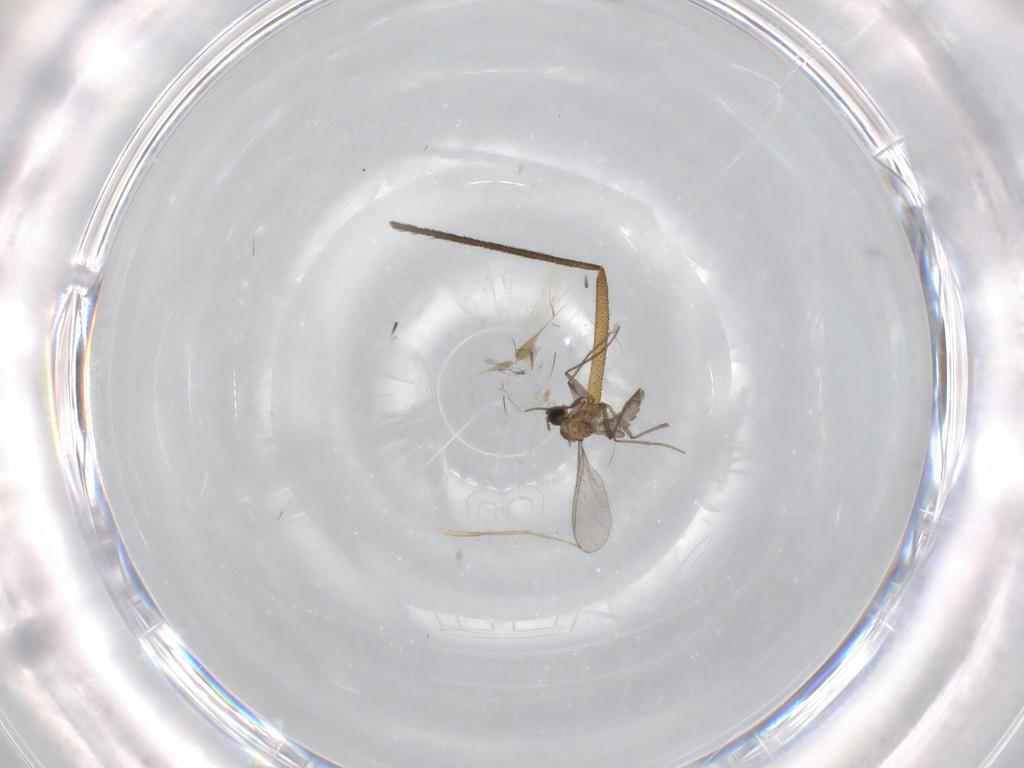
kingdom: Animalia
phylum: Arthropoda
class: Insecta
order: Diptera
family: Sciaridae
